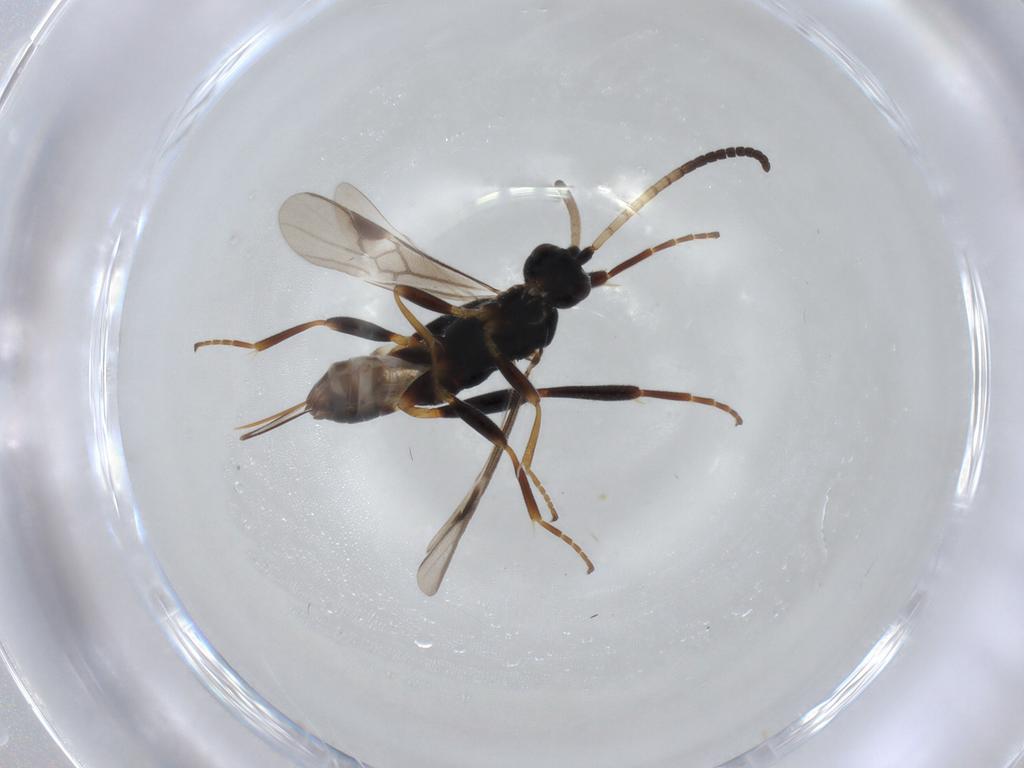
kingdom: Animalia
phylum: Arthropoda
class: Insecta
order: Hymenoptera
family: Braconidae
